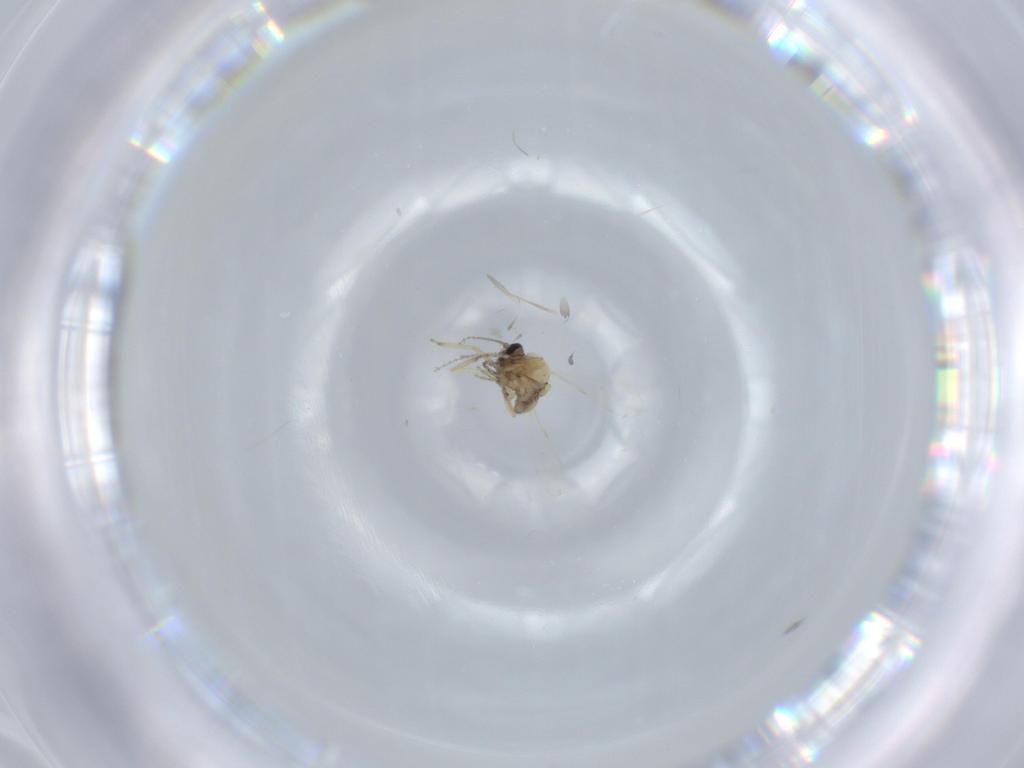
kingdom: Animalia
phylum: Arthropoda
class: Insecta
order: Diptera
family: Ceratopogonidae
